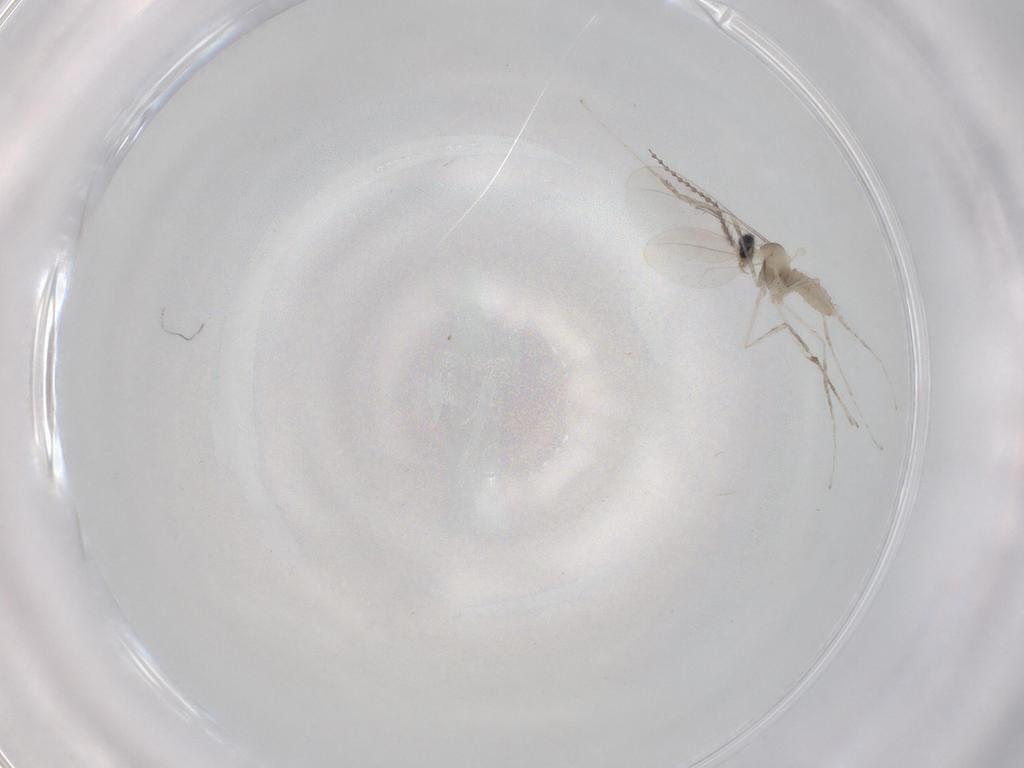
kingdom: Animalia
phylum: Arthropoda
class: Insecta
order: Diptera
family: Cecidomyiidae
